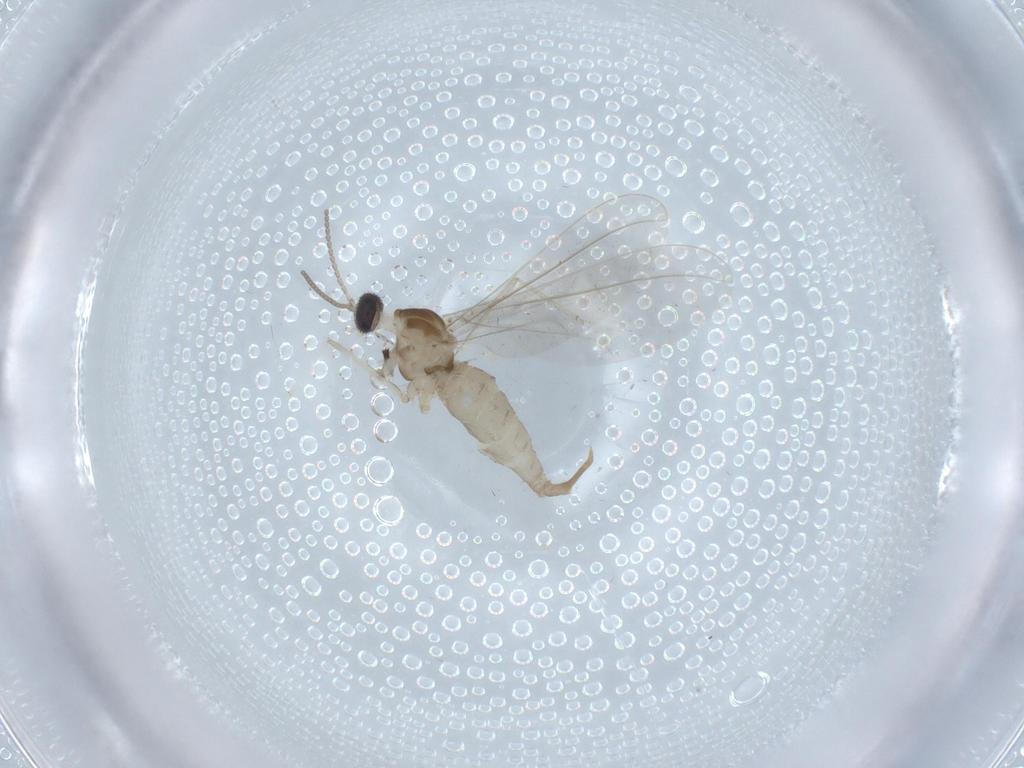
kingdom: Animalia
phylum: Arthropoda
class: Insecta
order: Diptera
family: Cecidomyiidae
